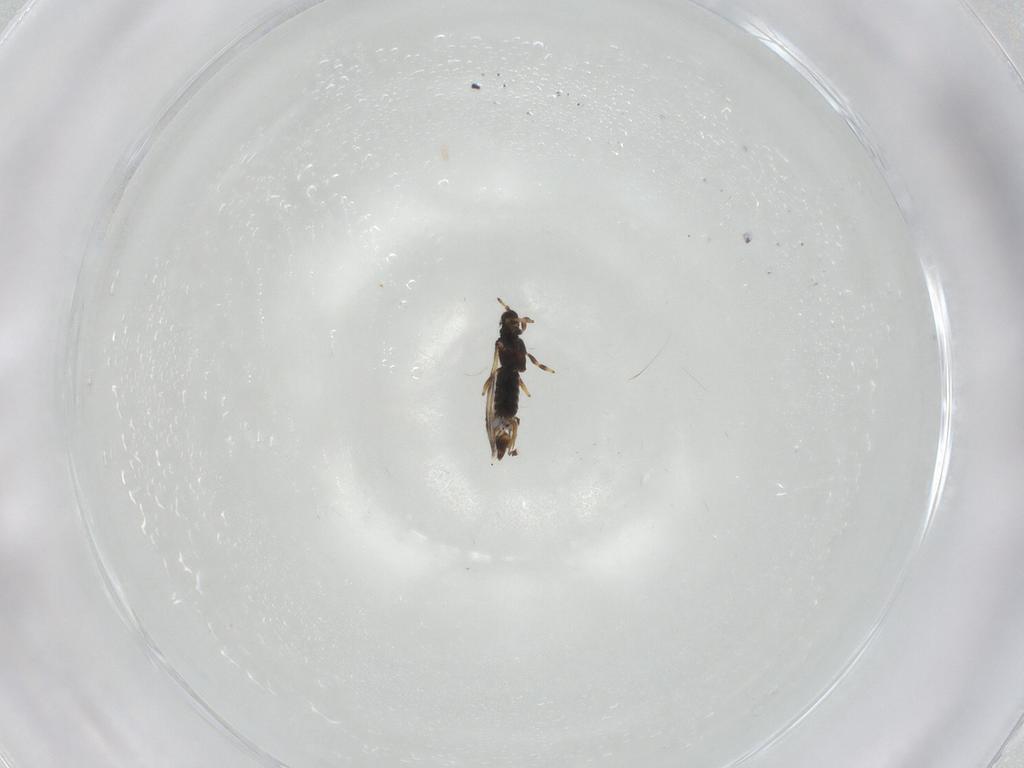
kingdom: Animalia
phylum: Arthropoda
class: Insecta
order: Thysanoptera
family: Thripidae
